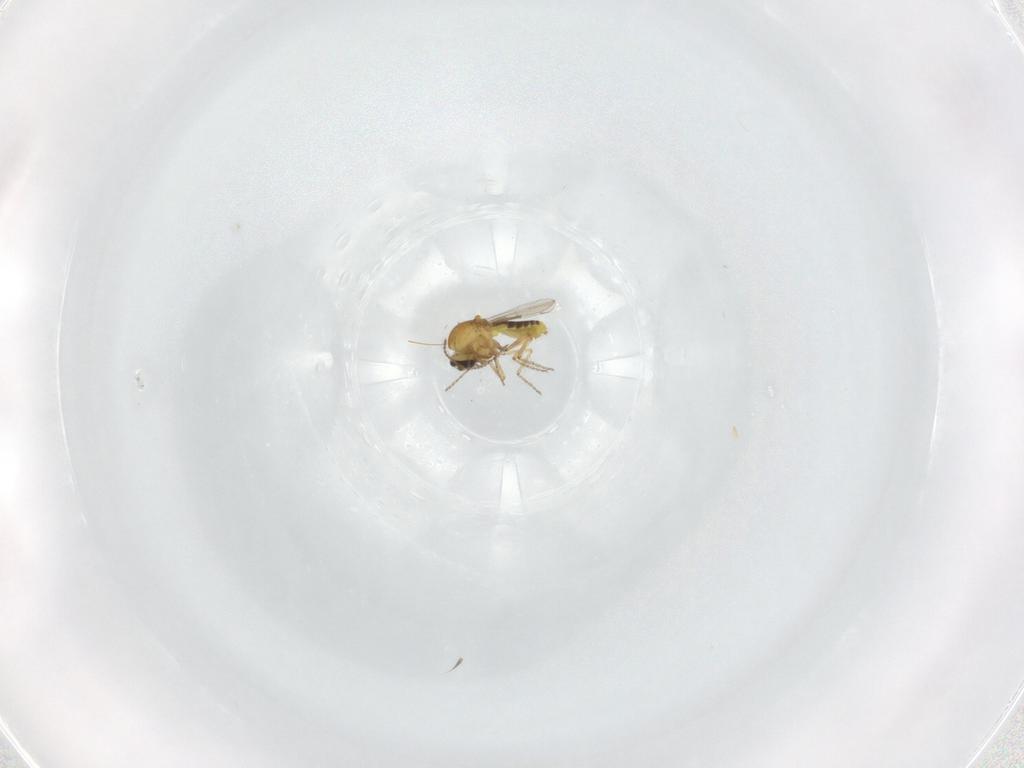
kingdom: Animalia
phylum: Arthropoda
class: Insecta
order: Diptera
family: Ceratopogonidae
